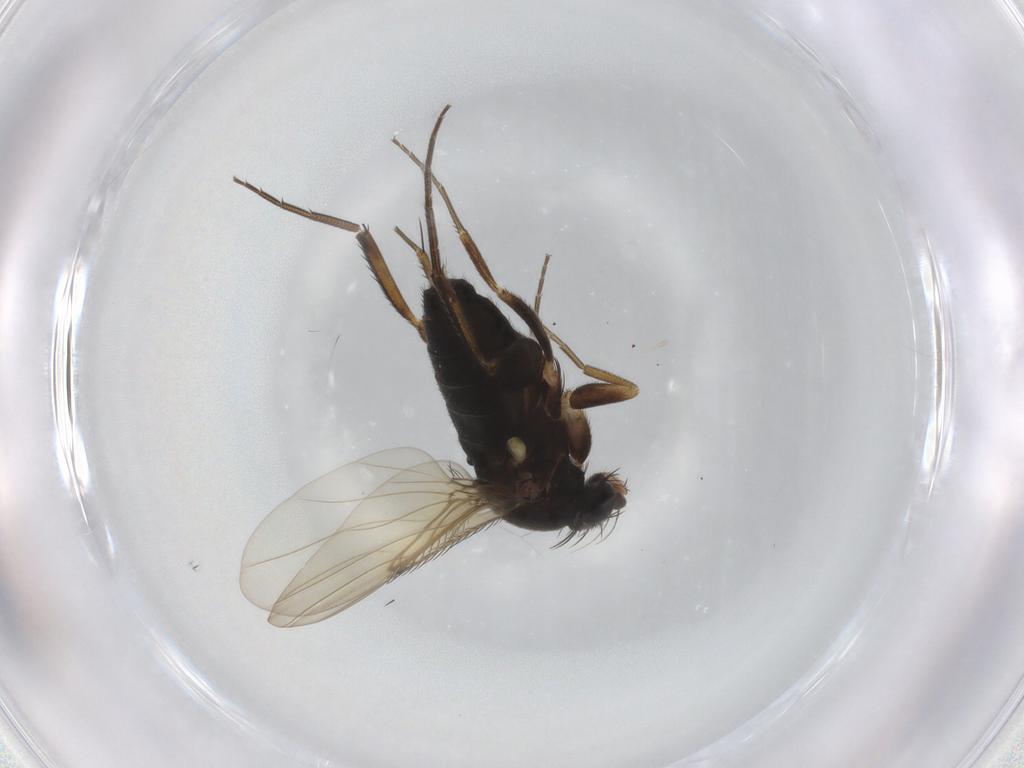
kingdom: Animalia
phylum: Arthropoda
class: Insecta
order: Diptera
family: Phoridae
